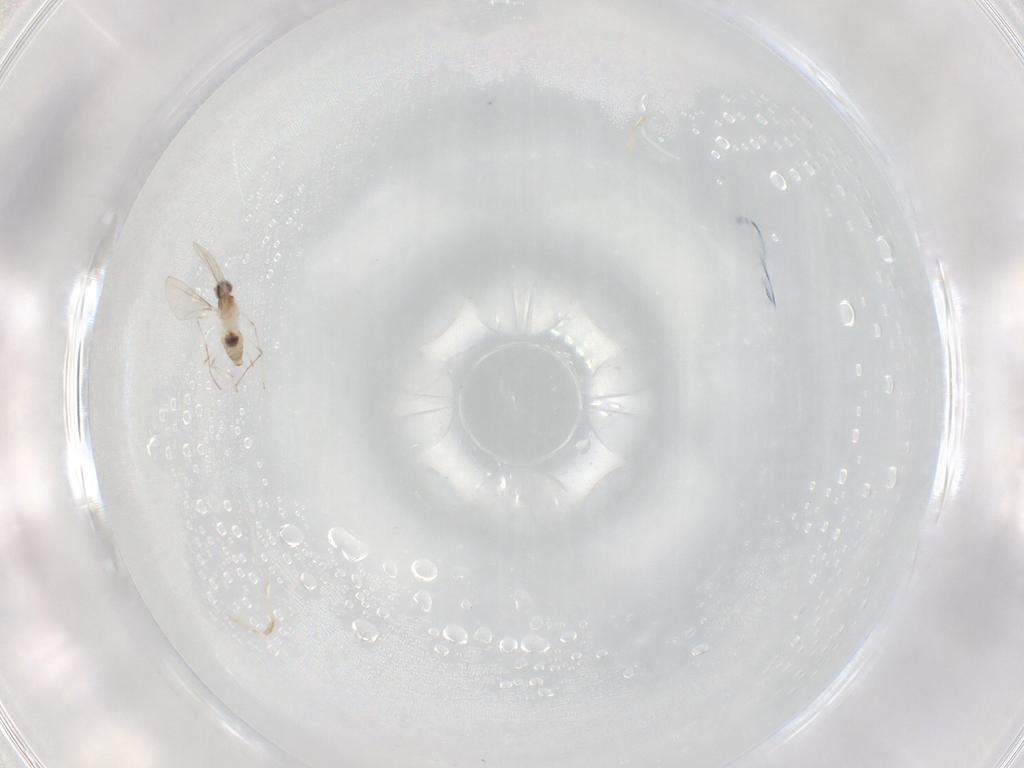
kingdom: Animalia
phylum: Arthropoda
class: Insecta
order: Diptera
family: Cecidomyiidae
